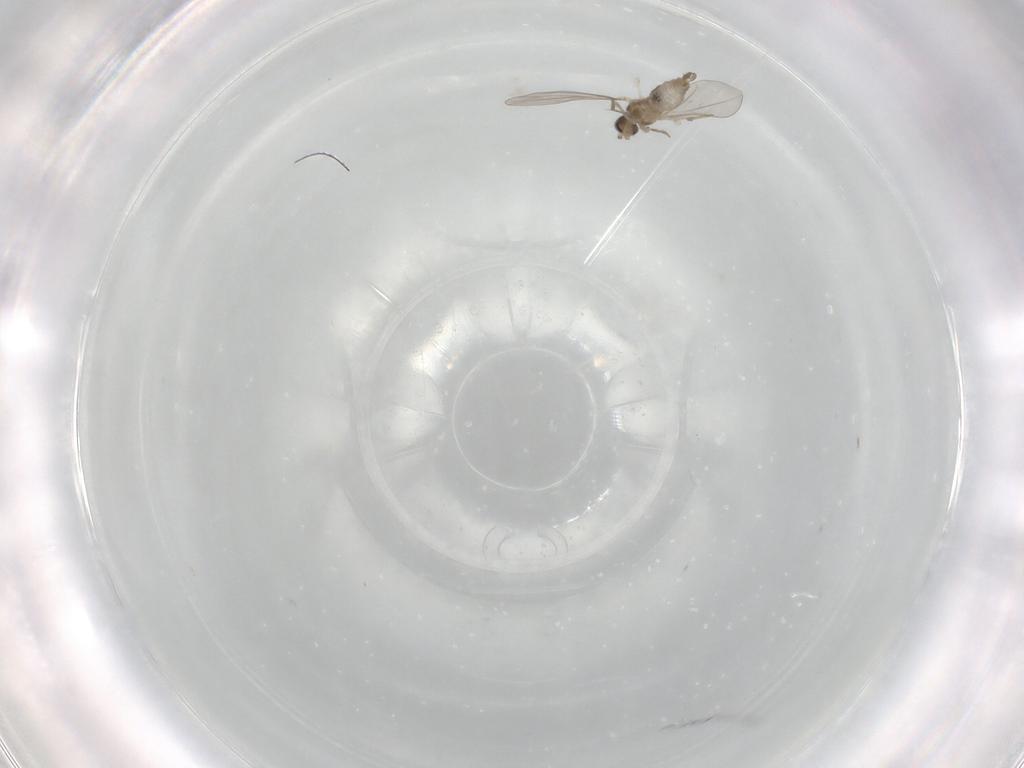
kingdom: Animalia
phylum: Arthropoda
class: Insecta
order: Diptera
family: Cecidomyiidae
